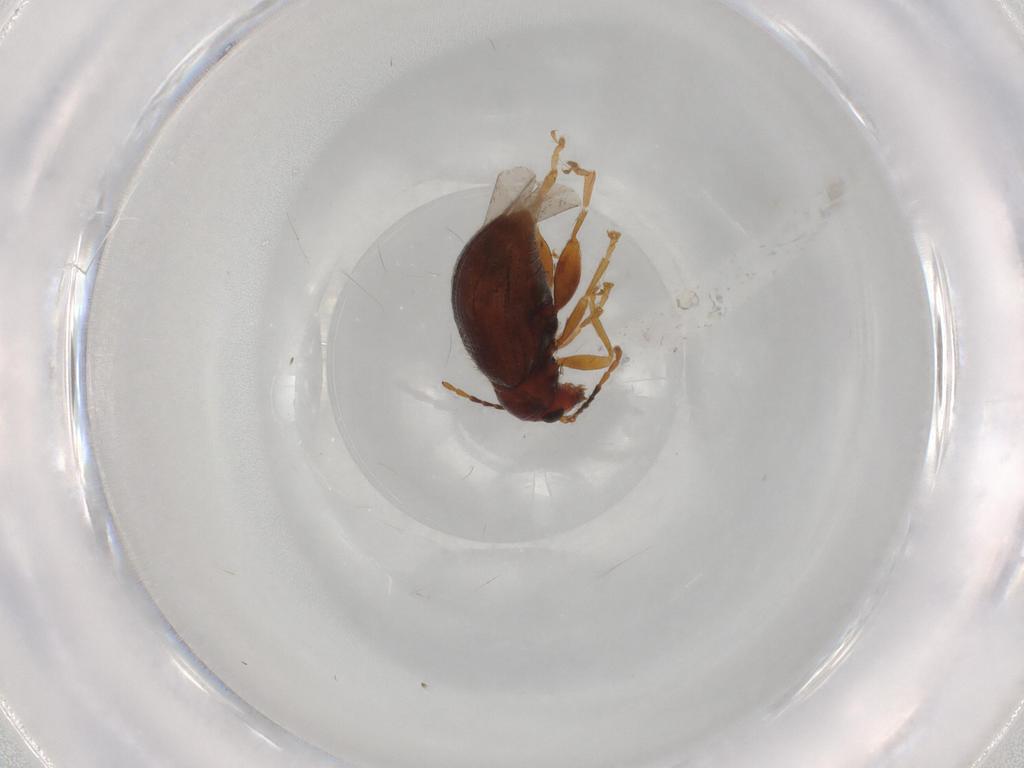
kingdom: Animalia
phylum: Arthropoda
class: Insecta
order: Coleoptera
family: Chrysomelidae
